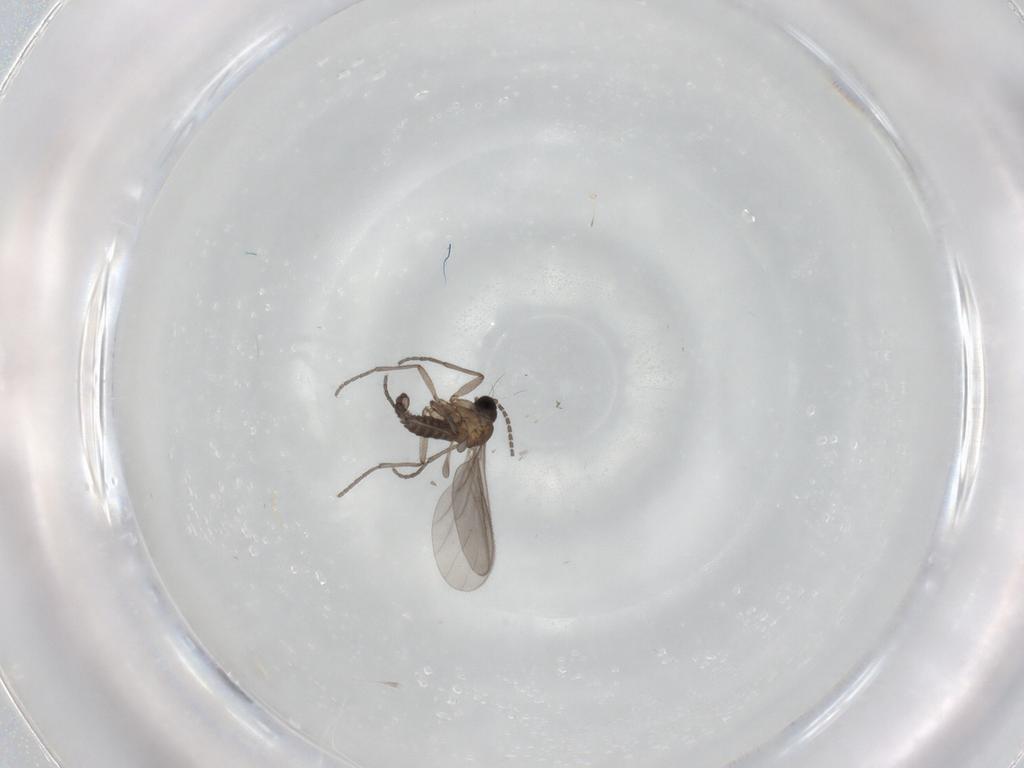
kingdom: Animalia
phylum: Arthropoda
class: Insecta
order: Diptera
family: Sciaridae
